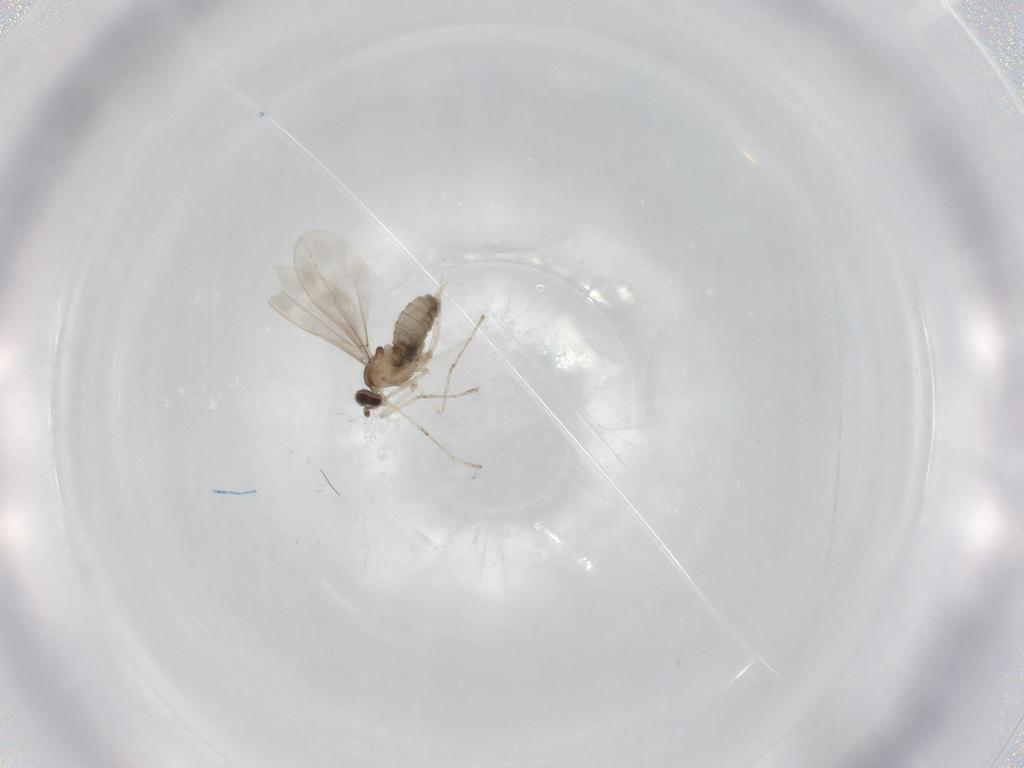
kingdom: Animalia
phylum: Arthropoda
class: Insecta
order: Diptera
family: Cecidomyiidae
